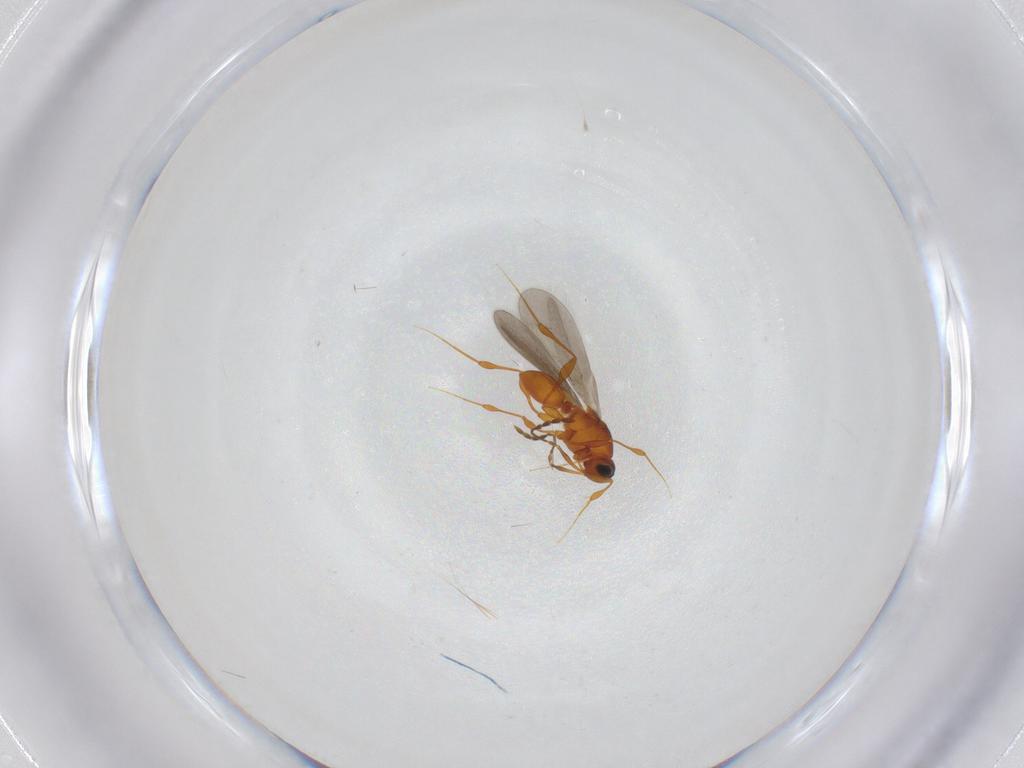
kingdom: Animalia
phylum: Arthropoda
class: Insecta
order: Hymenoptera
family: Platygastridae
